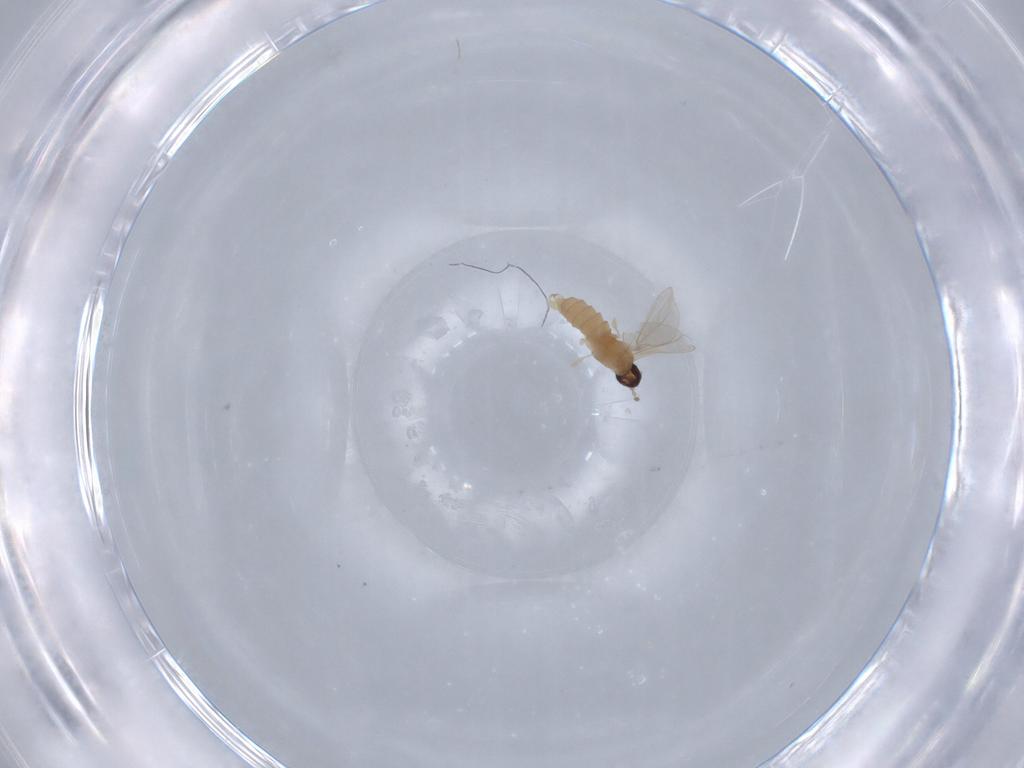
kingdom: Animalia
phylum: Arthropoda
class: Insecta
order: Diptera
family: Cecidomyiidae
